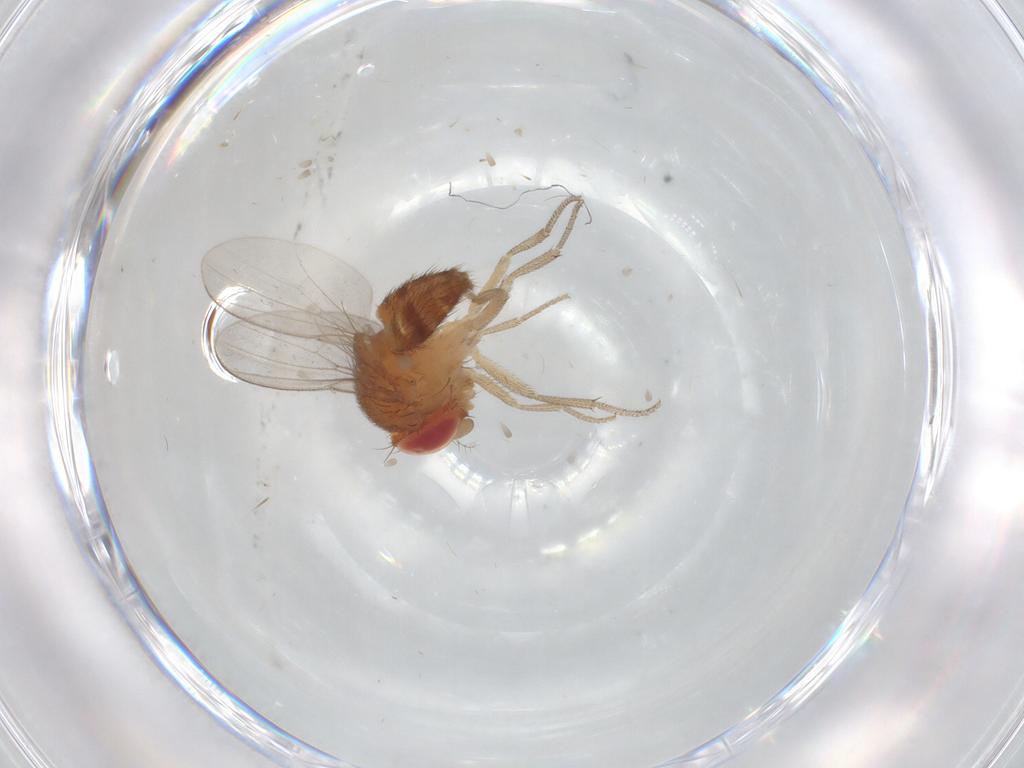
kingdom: Animalia
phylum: Arthropoda
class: Insecta
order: Diptera
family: Drosophilidae
